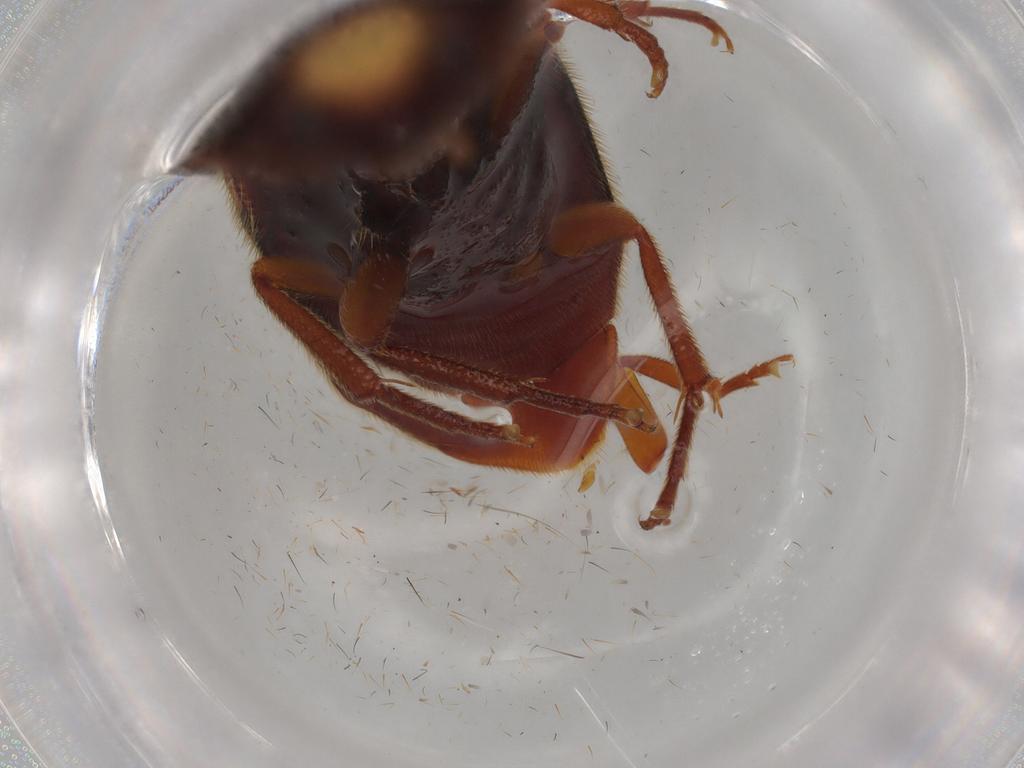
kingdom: Animalia
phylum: Arthropoda
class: Insecta
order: Coleoptera
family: Elateridae
